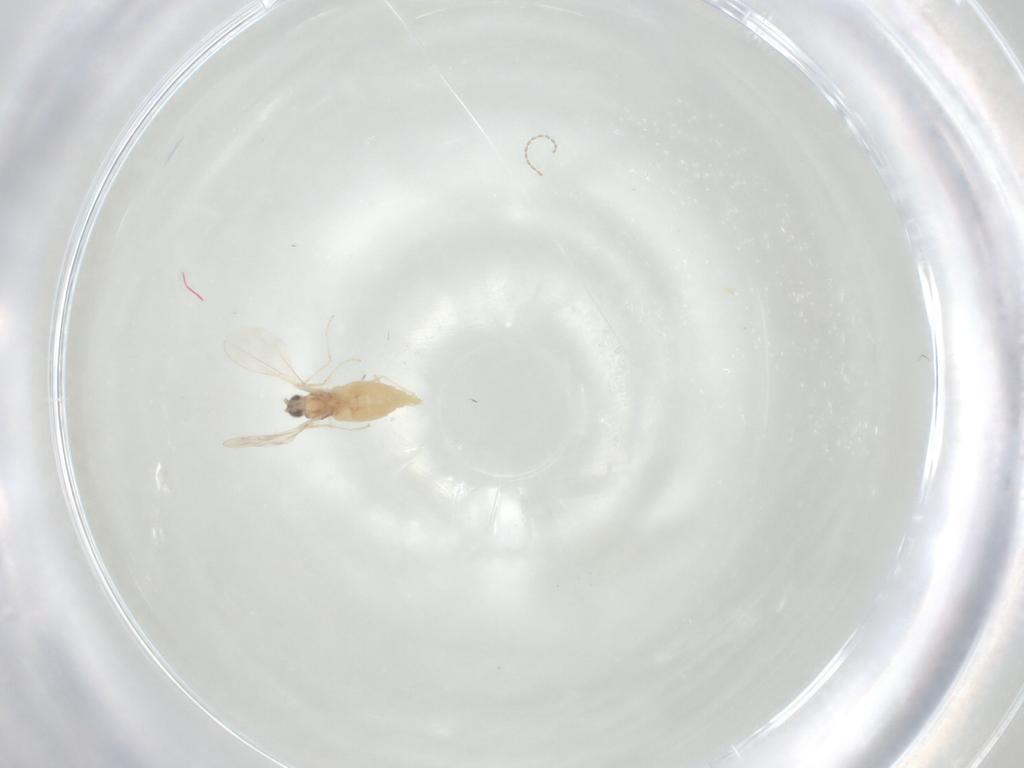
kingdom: Animalia
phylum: Arthropoda
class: Insecta
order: Diptera
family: Cecidomyiidae
